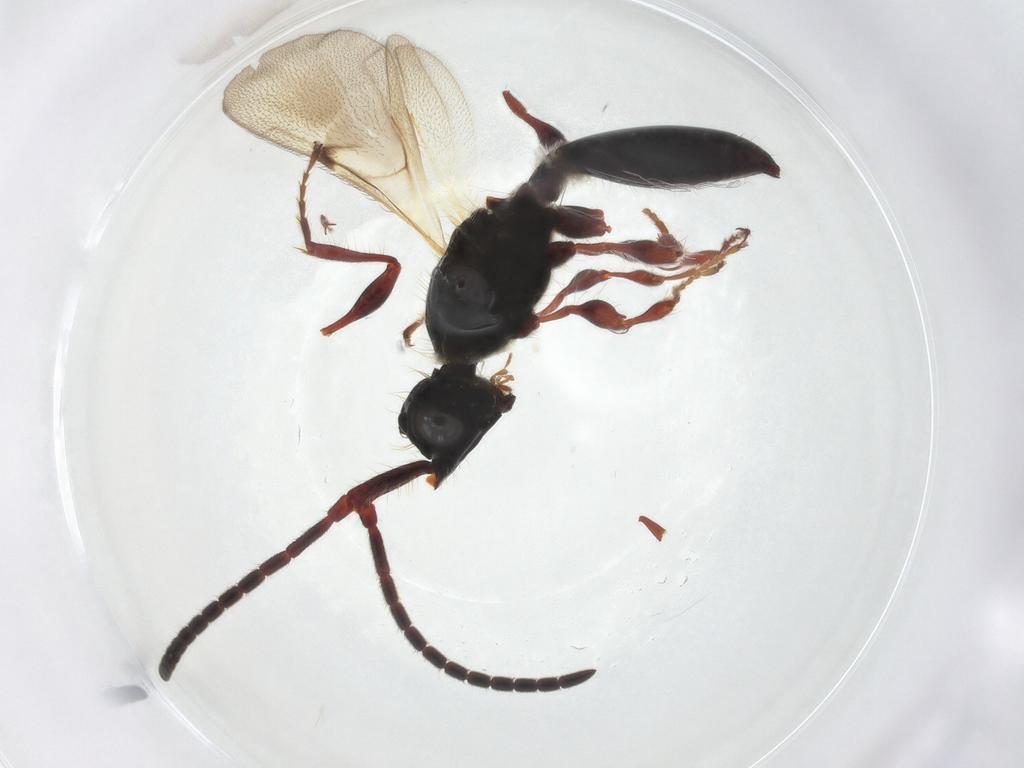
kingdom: Animalia
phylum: Arthropoda
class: Insecta
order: Hymenoptera
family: Diapriidae
